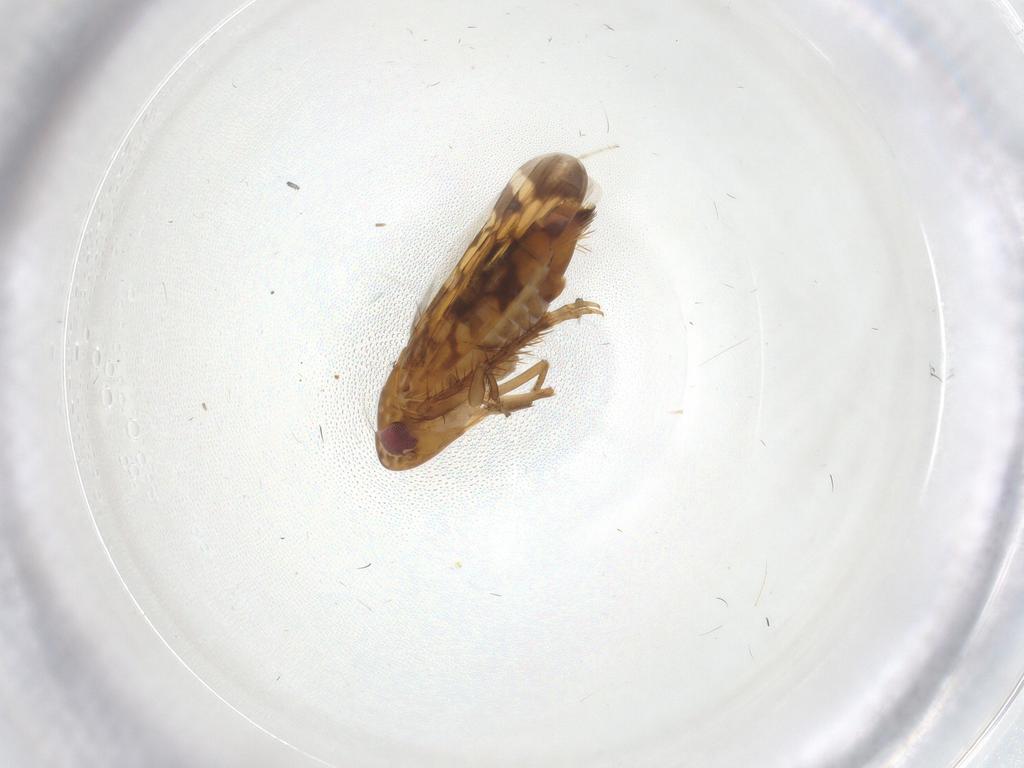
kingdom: Animalia
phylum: Arthropoda
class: Insecta
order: Hemiptera
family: Cicadellidae
